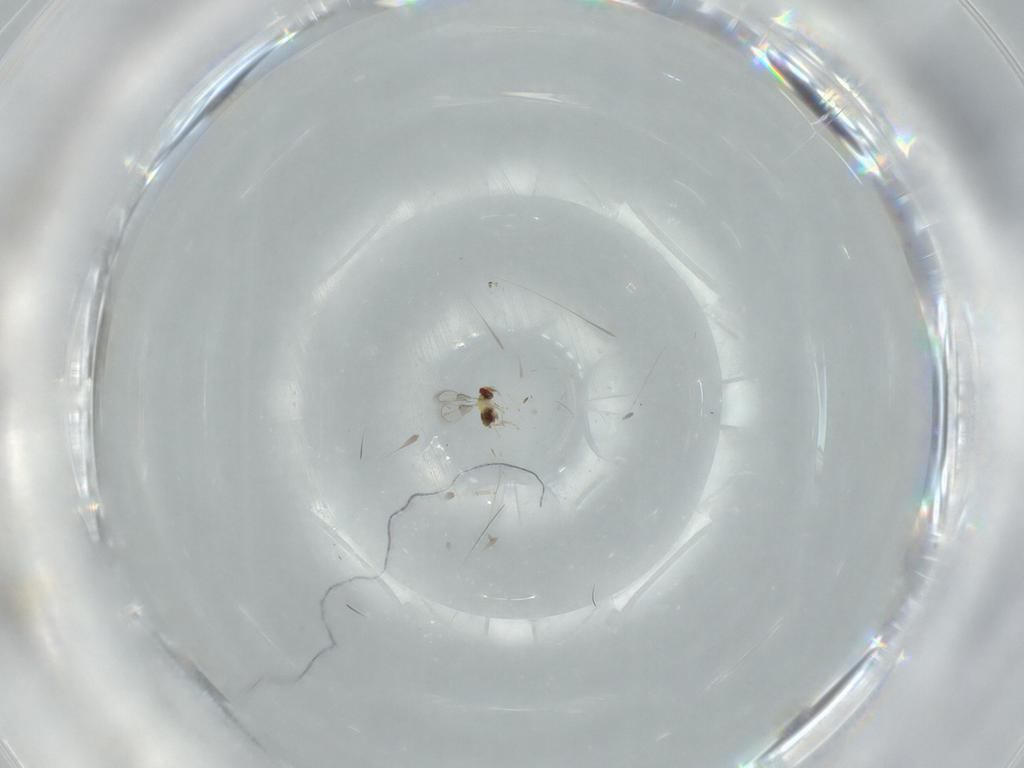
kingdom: Animalia
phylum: Arthropoda
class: Insecta
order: Hymenoptera
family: Trichogrammatidae
